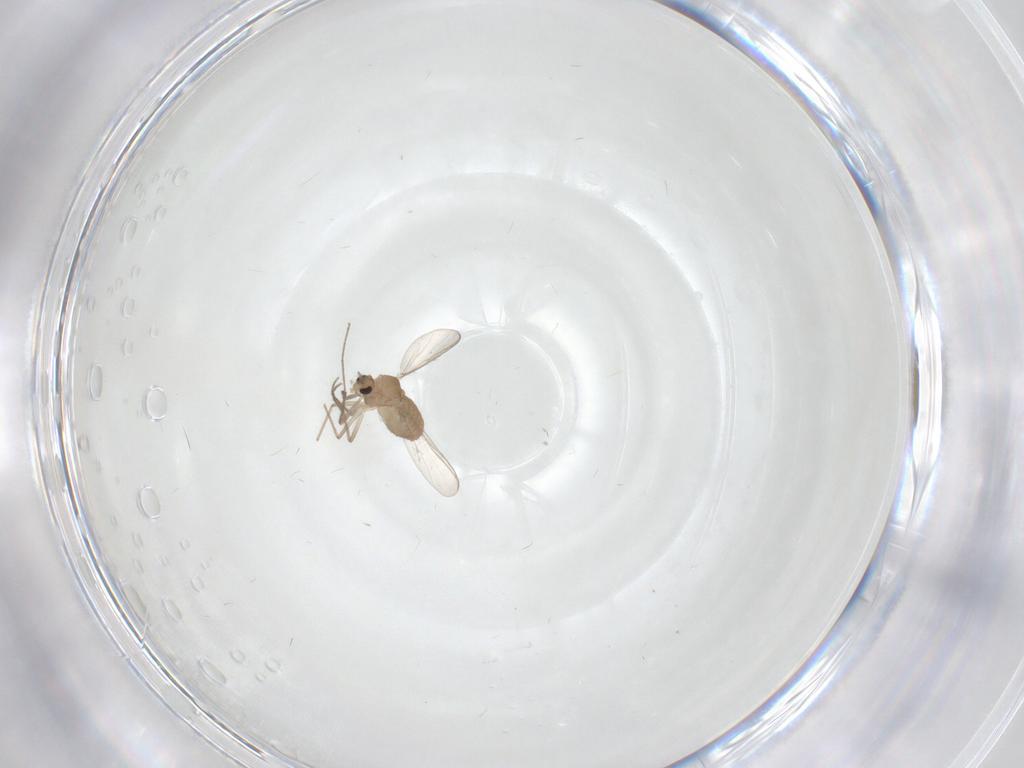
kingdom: Animalia
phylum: Arthropoda
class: Insecta
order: Diptera
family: Chironomidae
